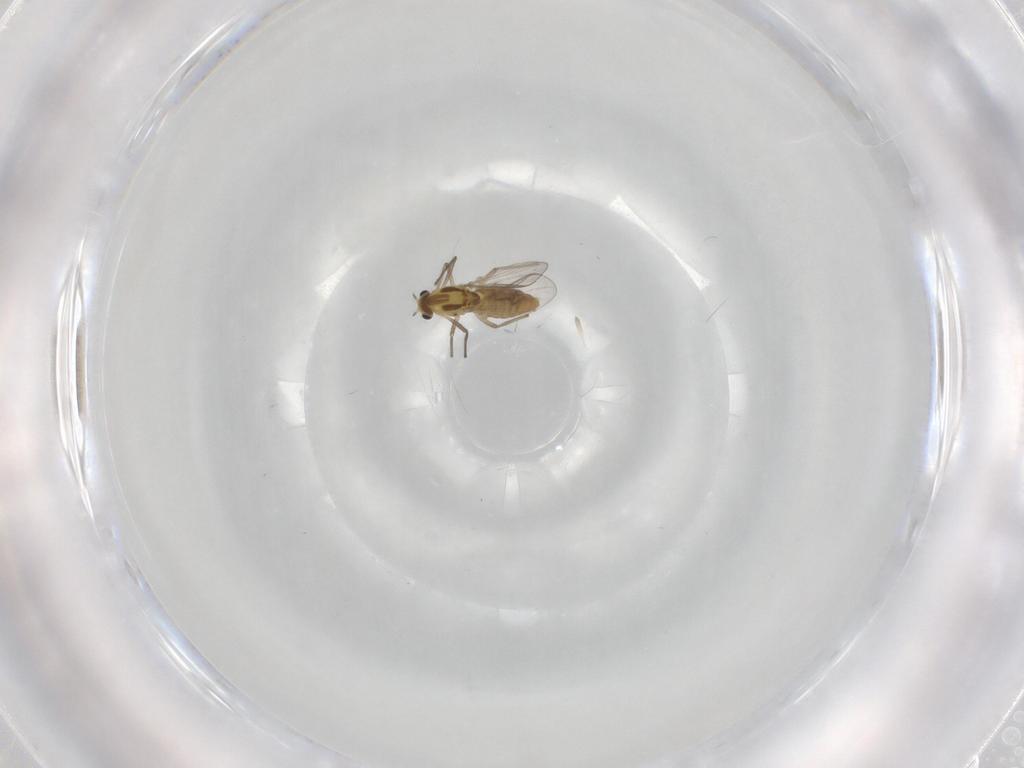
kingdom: Animalia
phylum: Arthropoda
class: Insecta
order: Diptera
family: Chironomidae
